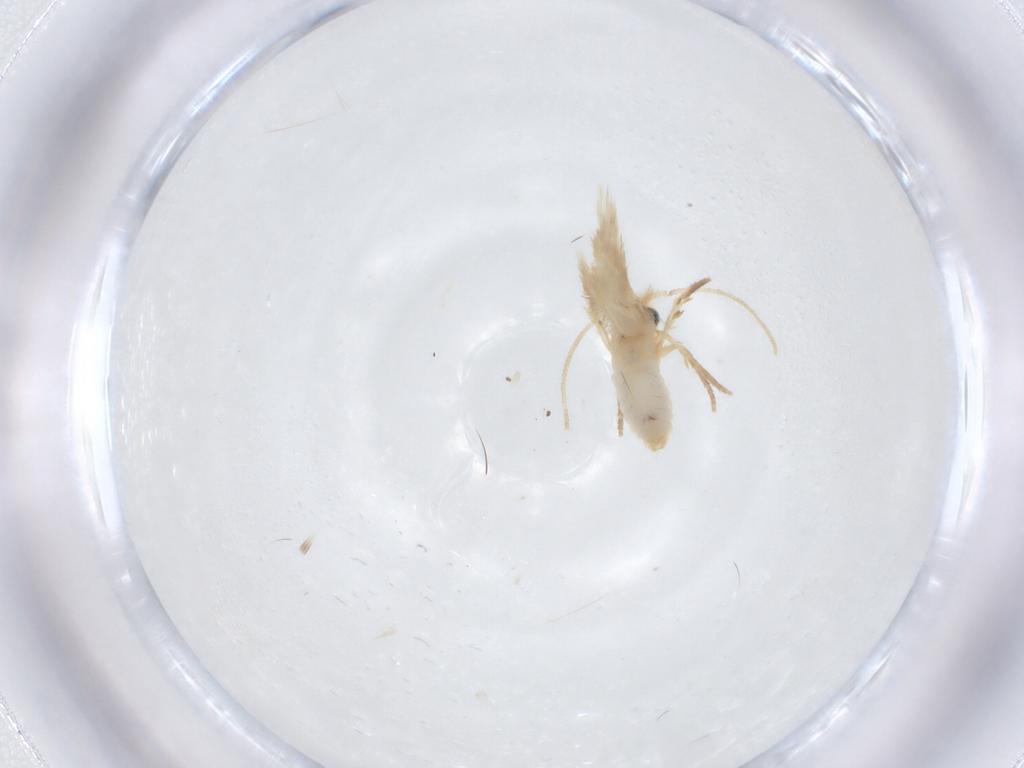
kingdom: Animalia
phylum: Arthropoda
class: Insecta
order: Lepidoptera
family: Nepticulidae
